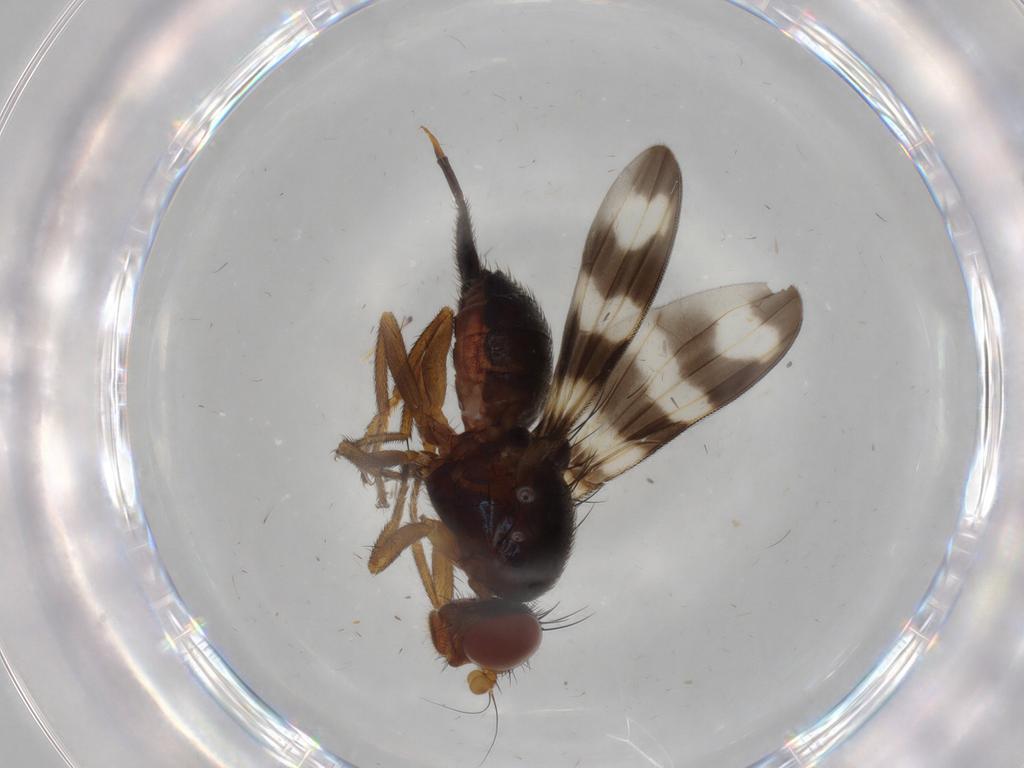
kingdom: Animalia
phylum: Arthropoda
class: Insecta
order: Diptera
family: Ulidiidae
